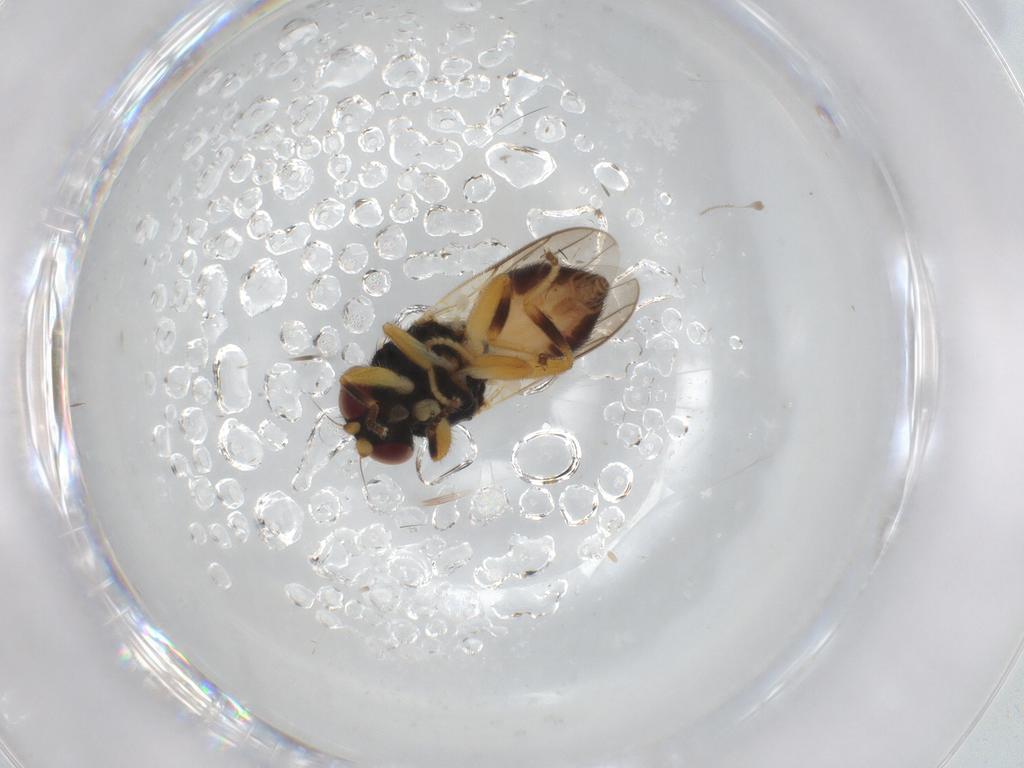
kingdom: Animalia
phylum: Arthropoda
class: Insecta
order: Diptera
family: Chloropidae
